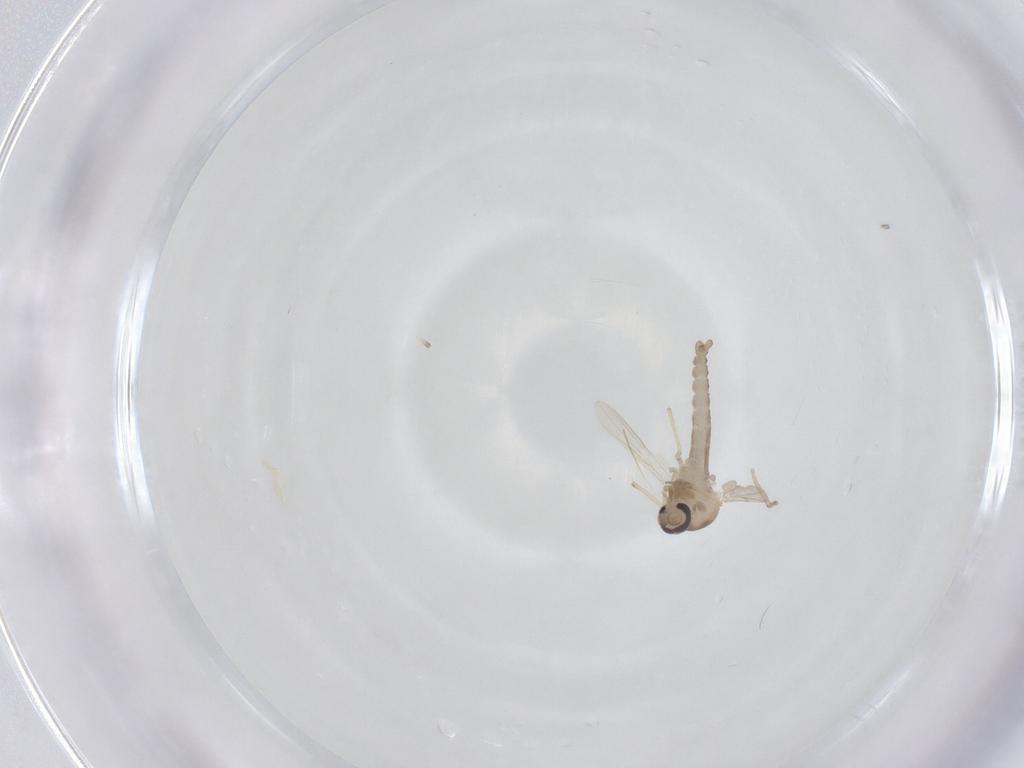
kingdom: Animalia
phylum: Arthropoda
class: Insecta
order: Diptera
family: Ceratopogonidae
